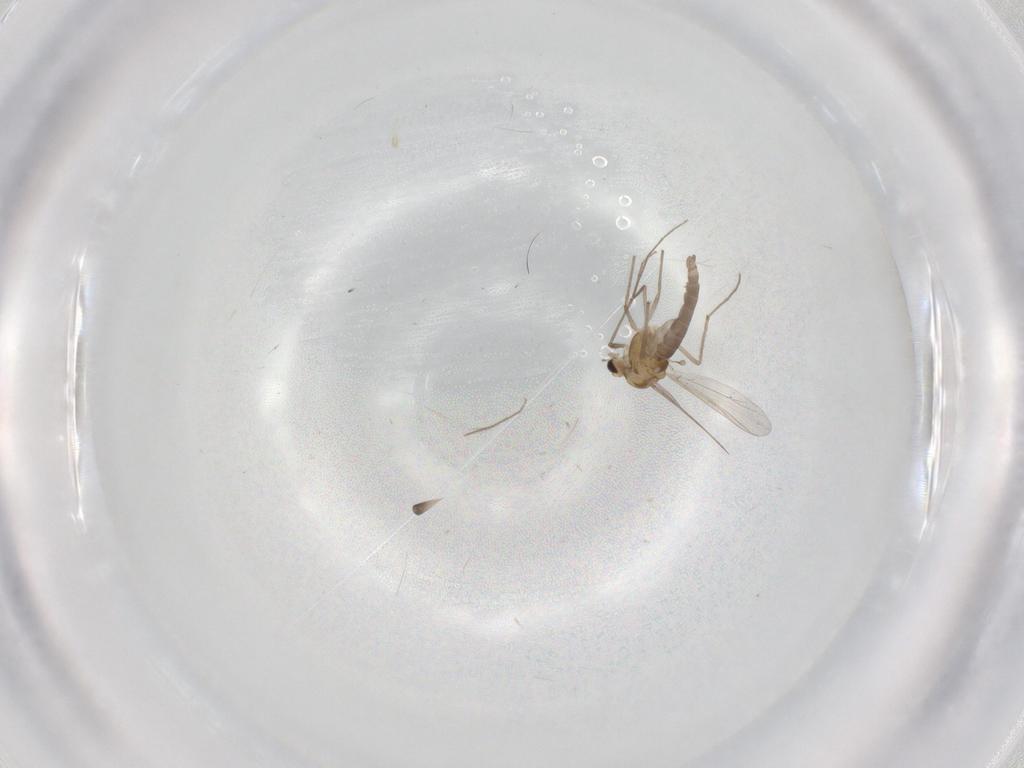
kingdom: Animalia
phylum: Arthropoda
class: Insecta
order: Diptera
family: Chironomidae
